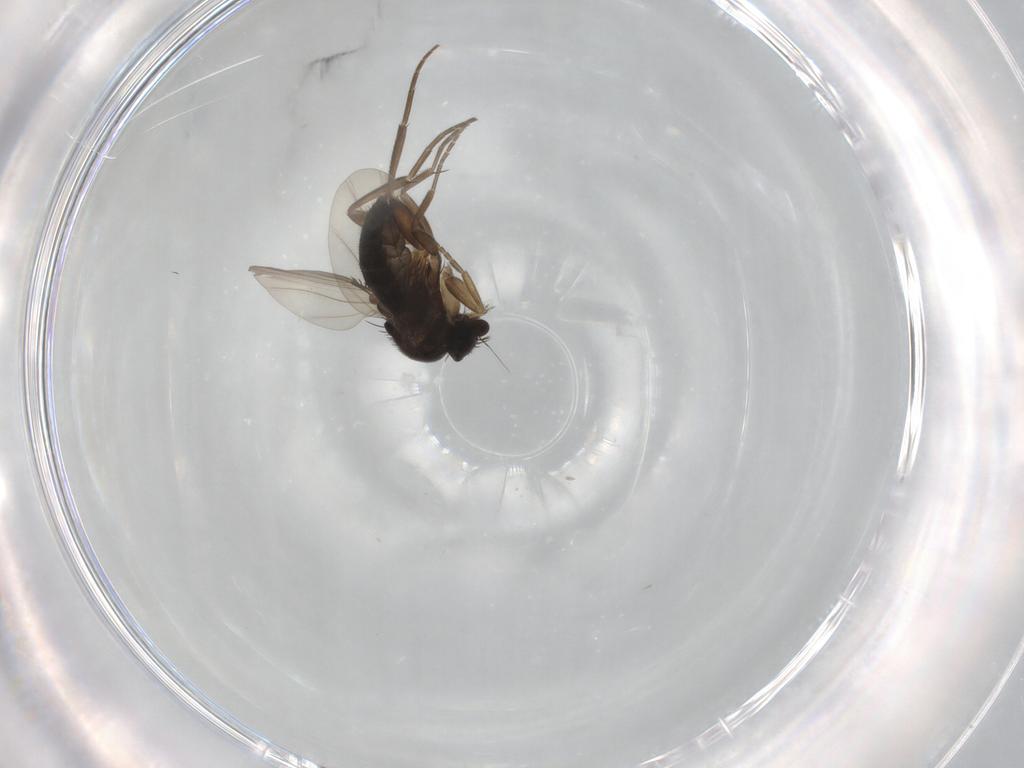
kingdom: Animalia
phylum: Arthropoda
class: Insecta
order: Diptera
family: Phoridae
